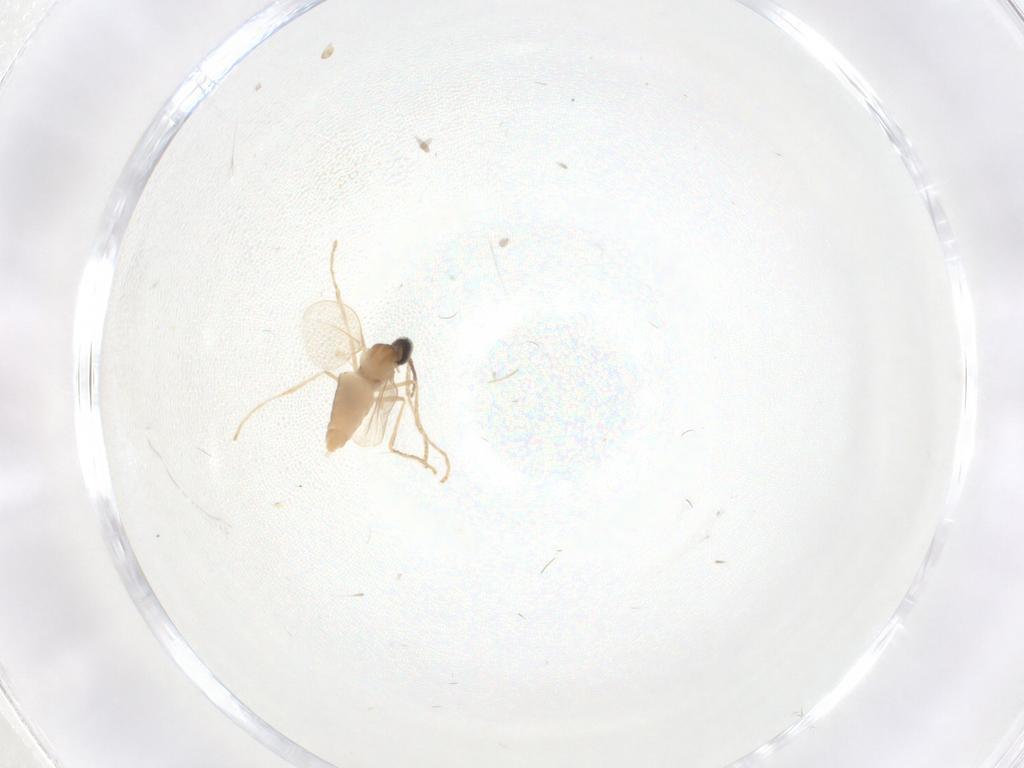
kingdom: Animalia
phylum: Arthropoda
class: Insecta
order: Diptera
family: Cecidomyiidae
